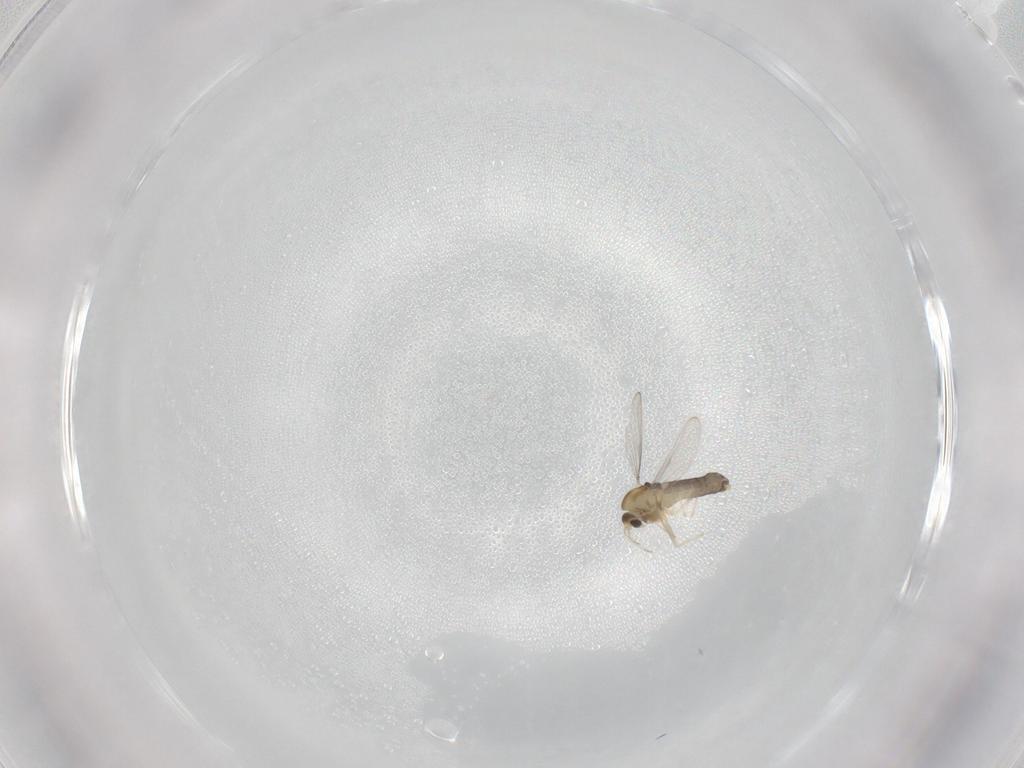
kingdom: Animalia
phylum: Arthropoda
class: Insecta
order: Diptera
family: Chironomidae
